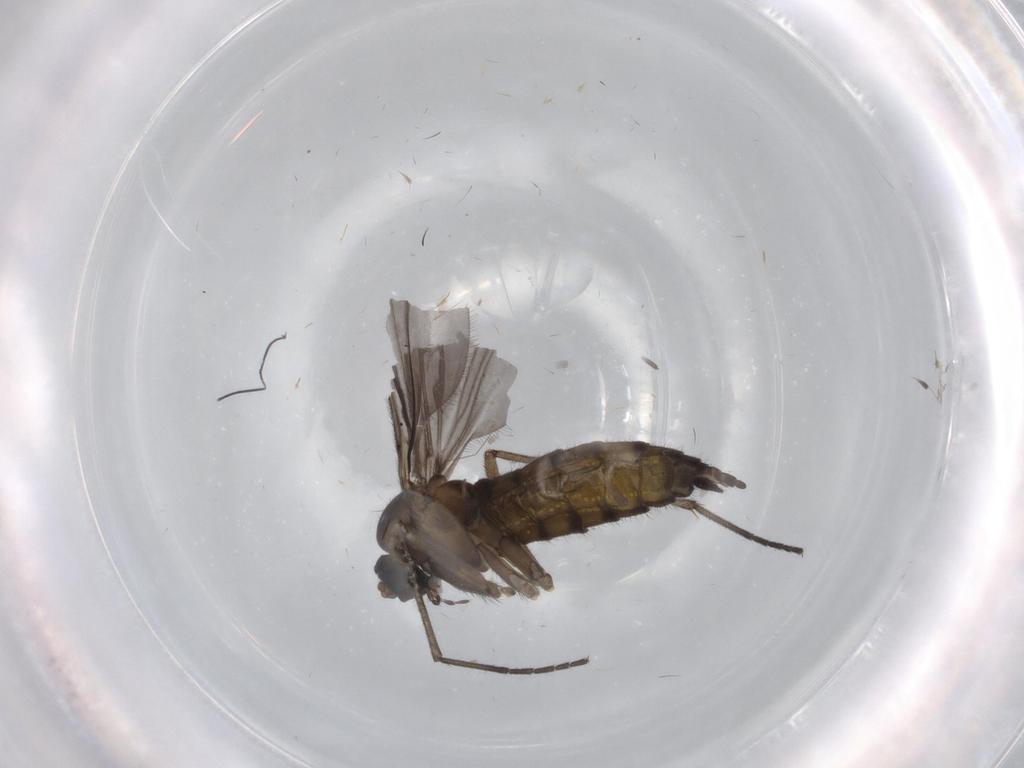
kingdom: Animalia
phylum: Arthropoda
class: Insecta
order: Diptera
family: Sciaridae
